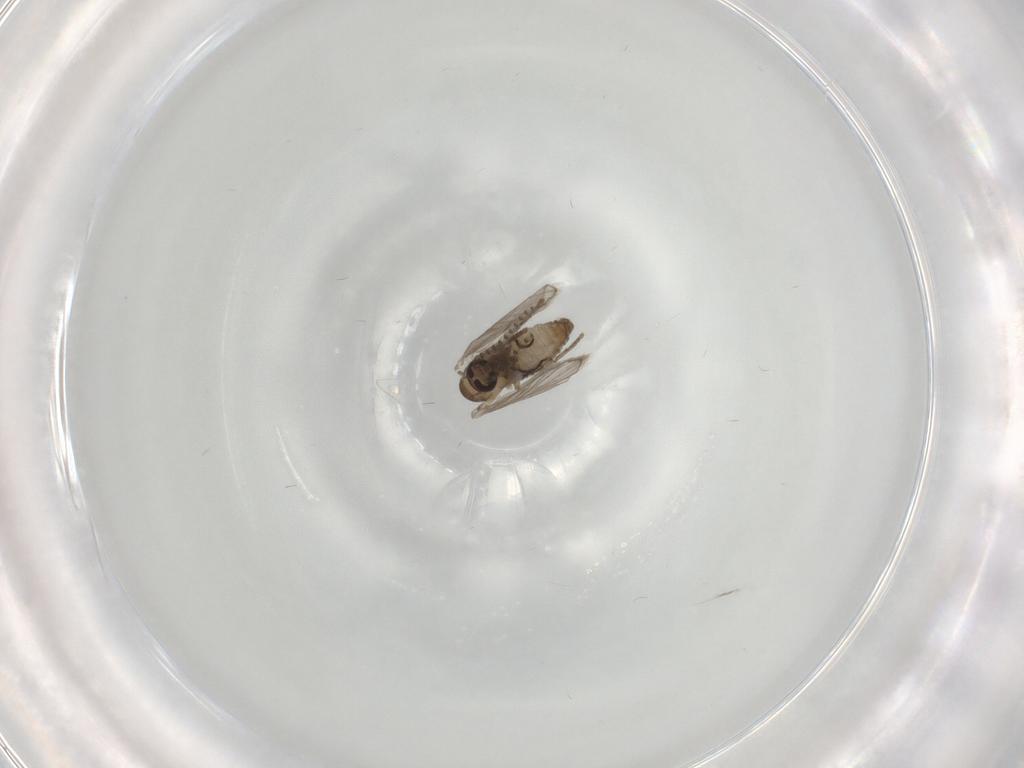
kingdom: Animalia
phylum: Arthropoda
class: Insecta
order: Diptera
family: Psychodidae
